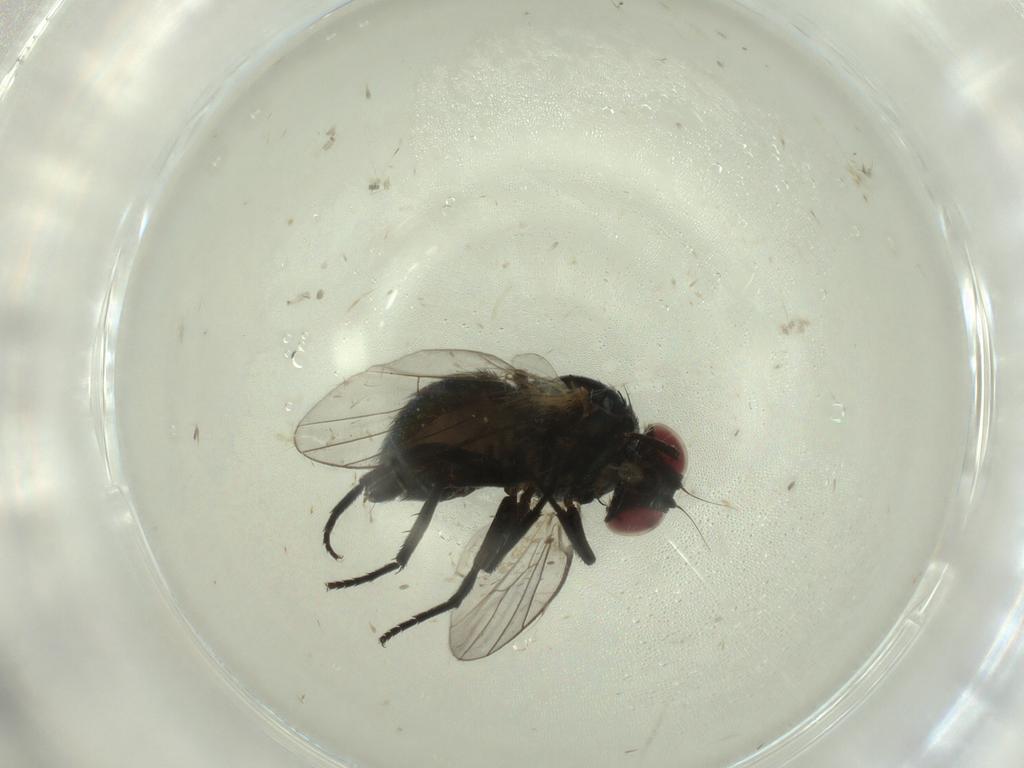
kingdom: Animalia
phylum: Arthropoda
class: Insecta
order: Diptera
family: Agromyzidae
